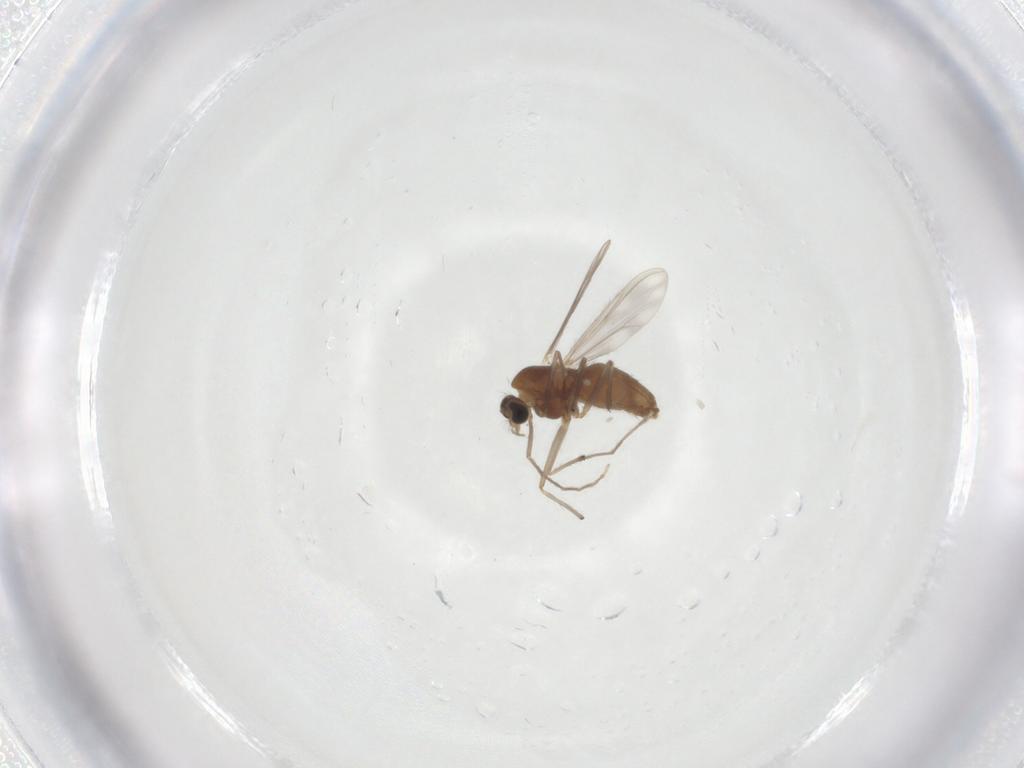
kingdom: Animalia
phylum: Arthropoda
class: Insecta
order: Diptera
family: Chironomidae
